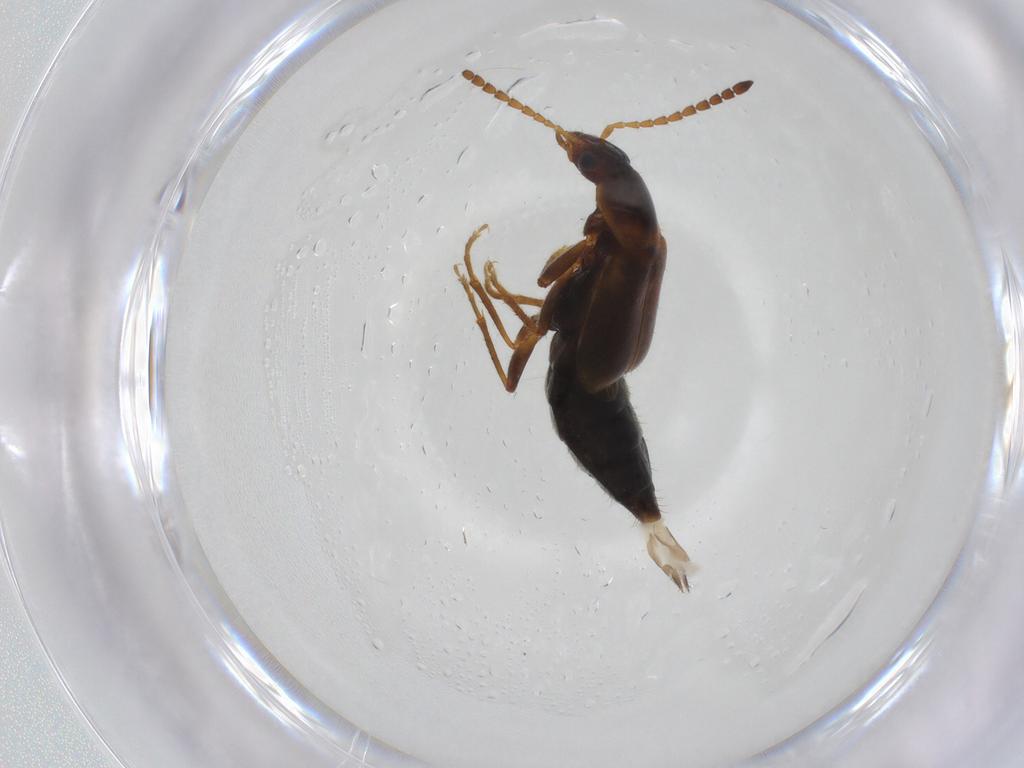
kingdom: Animalia
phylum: Arthropoda
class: Insecta
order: Coleoptera
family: Staphylinidae
